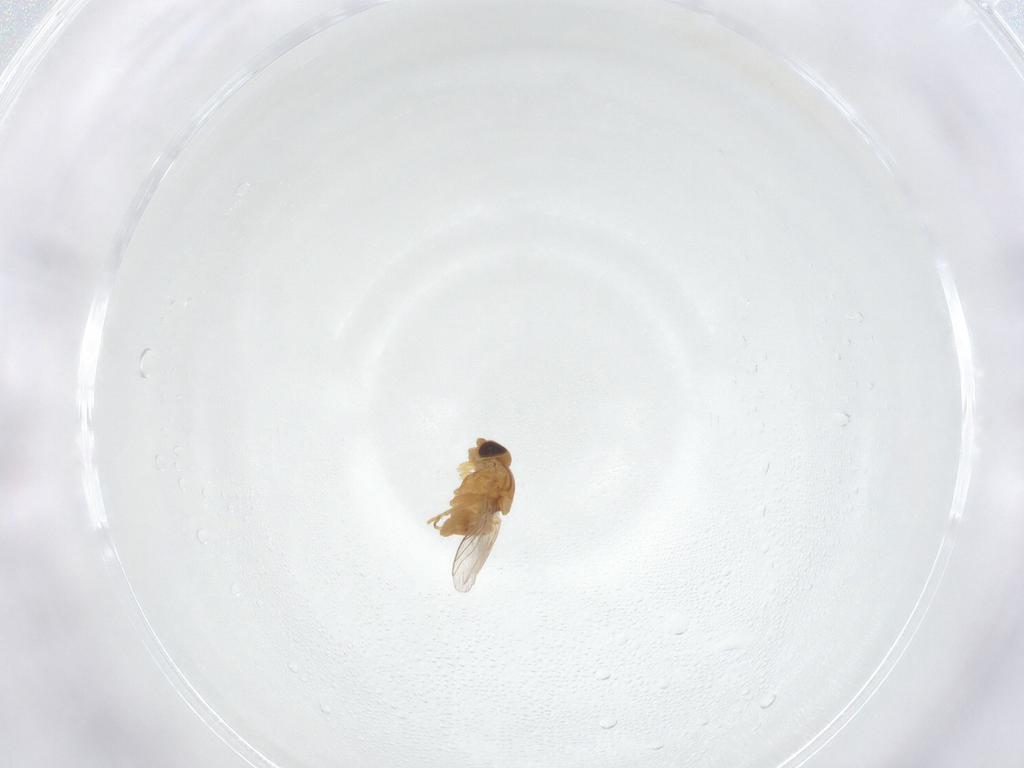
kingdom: Animalia
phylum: Arthropoda
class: Insecta
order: Diptera
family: Chloropidae
